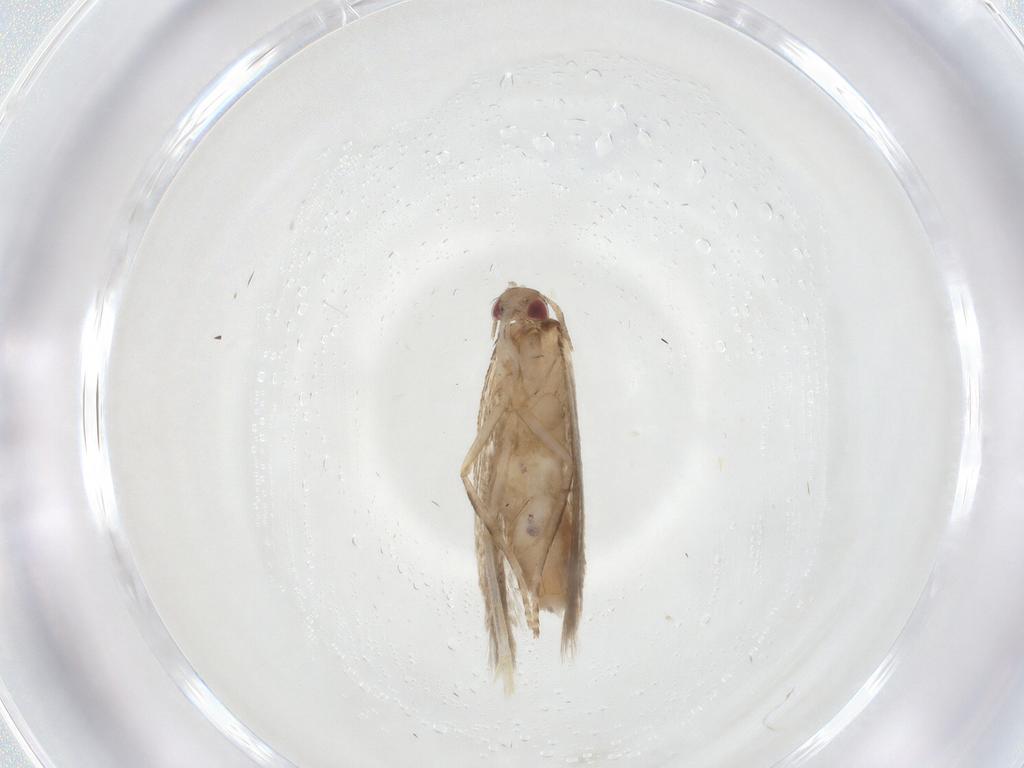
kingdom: Animalia
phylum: Arthropoda
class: Insecta
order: Lepidoptera
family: Gelechiidae
